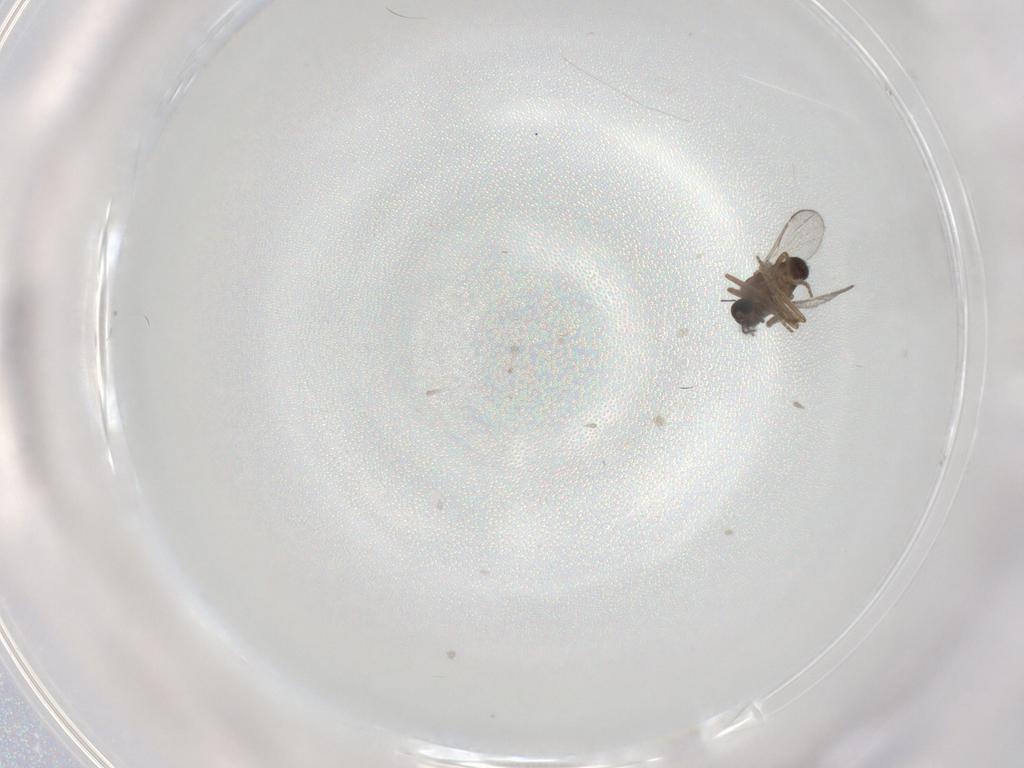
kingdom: Animalia
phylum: Arthropoda
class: Insecta
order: Diptera
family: Ceratopogonidae
